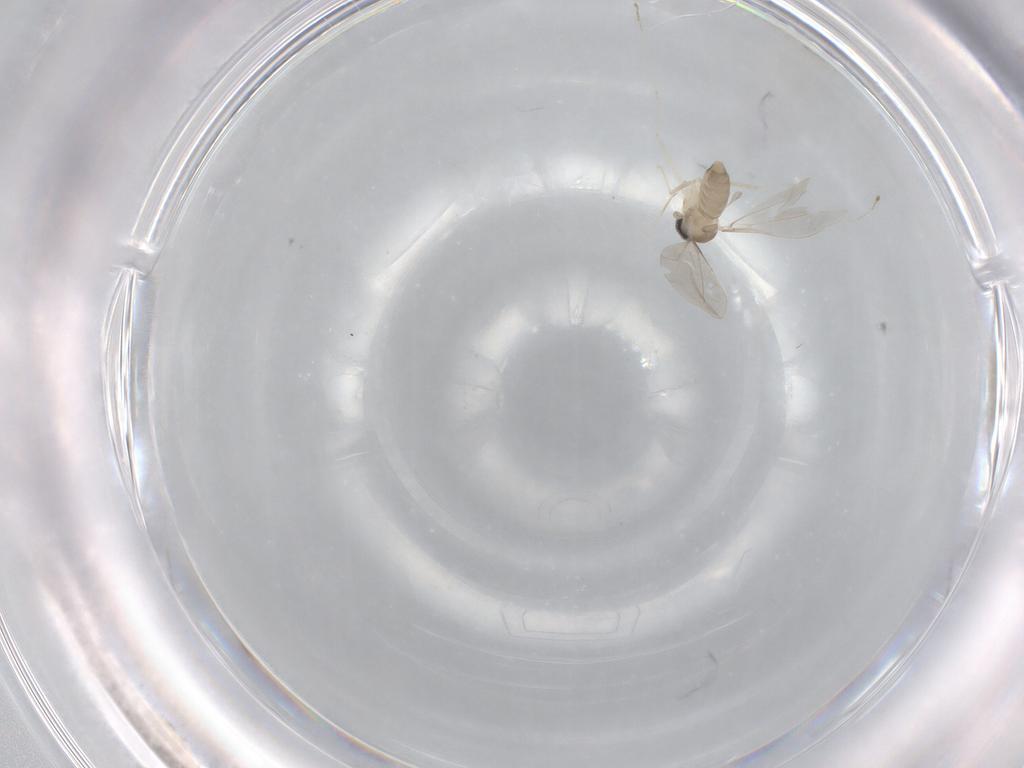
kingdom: Animalia
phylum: Arthropoda
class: Insecta
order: Diptera
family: Cecidomyiidae
